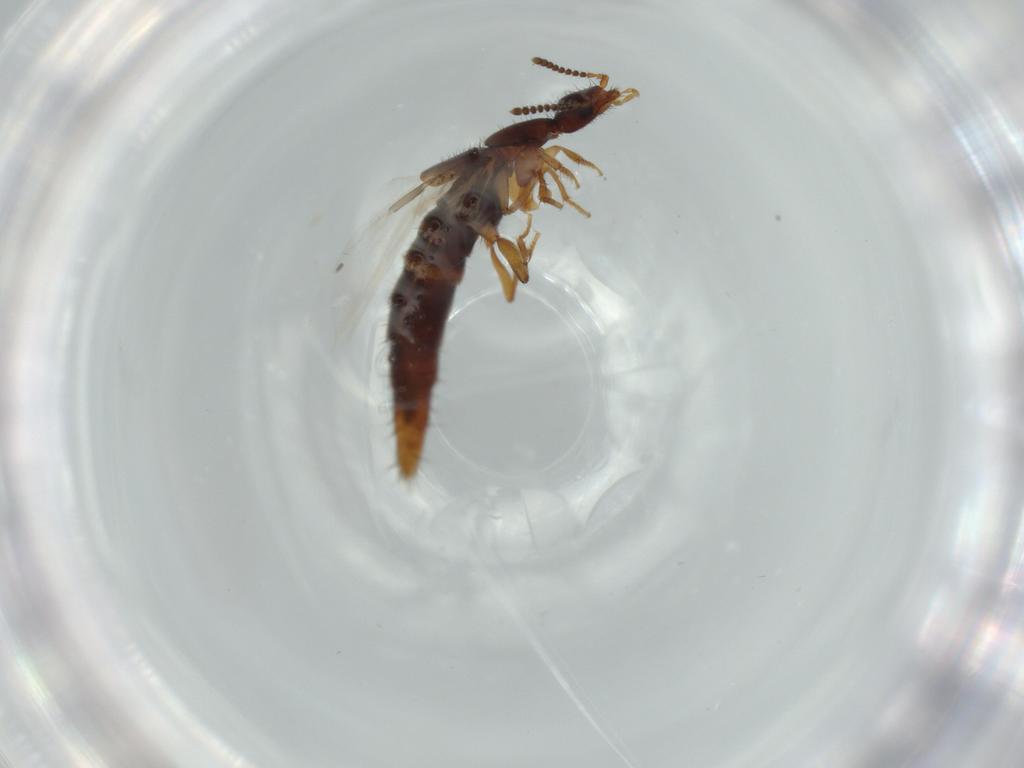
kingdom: Animalia
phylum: Arthropoda
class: Insecta
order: Coleoptera
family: Staphylinidae
